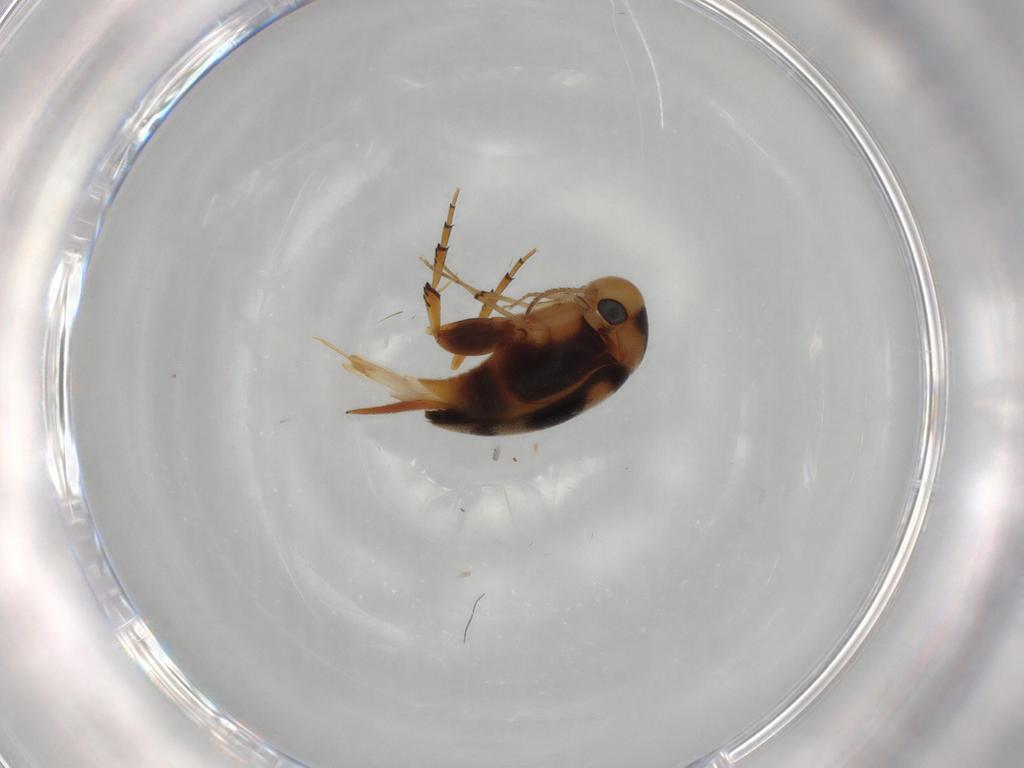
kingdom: Animalia
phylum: Arthropoda
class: Insecta
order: Coleoptera
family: Mordellidae
